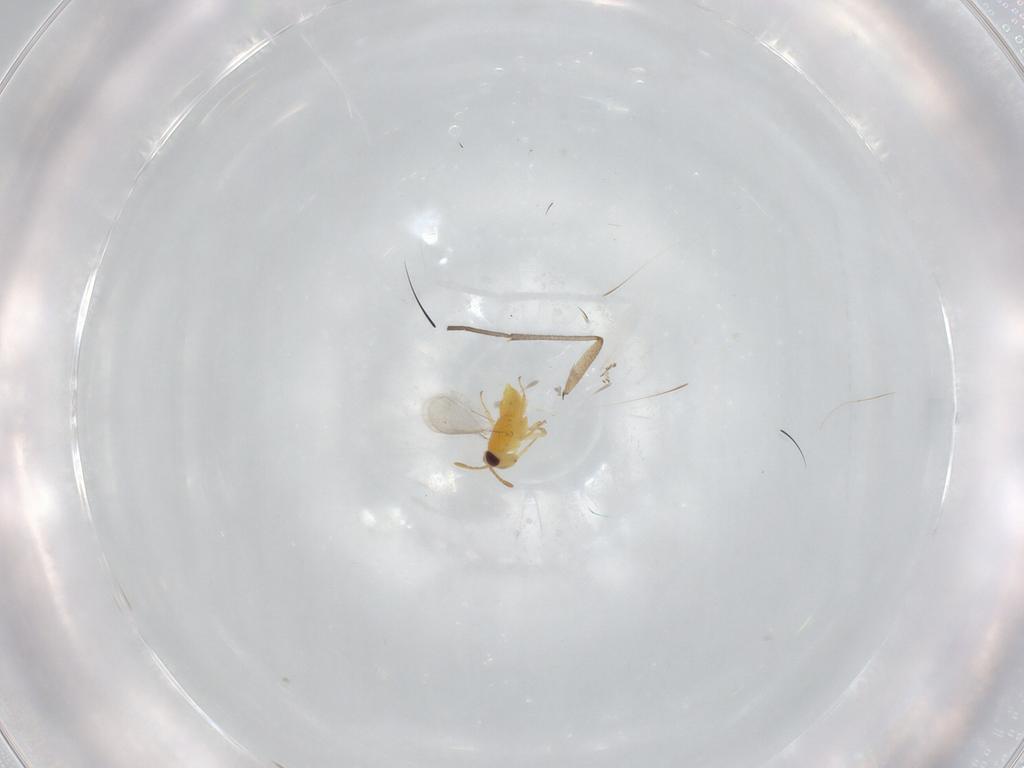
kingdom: Animalia
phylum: Arthropoda
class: Insecta
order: Hymenoptera
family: Aphelinidae
